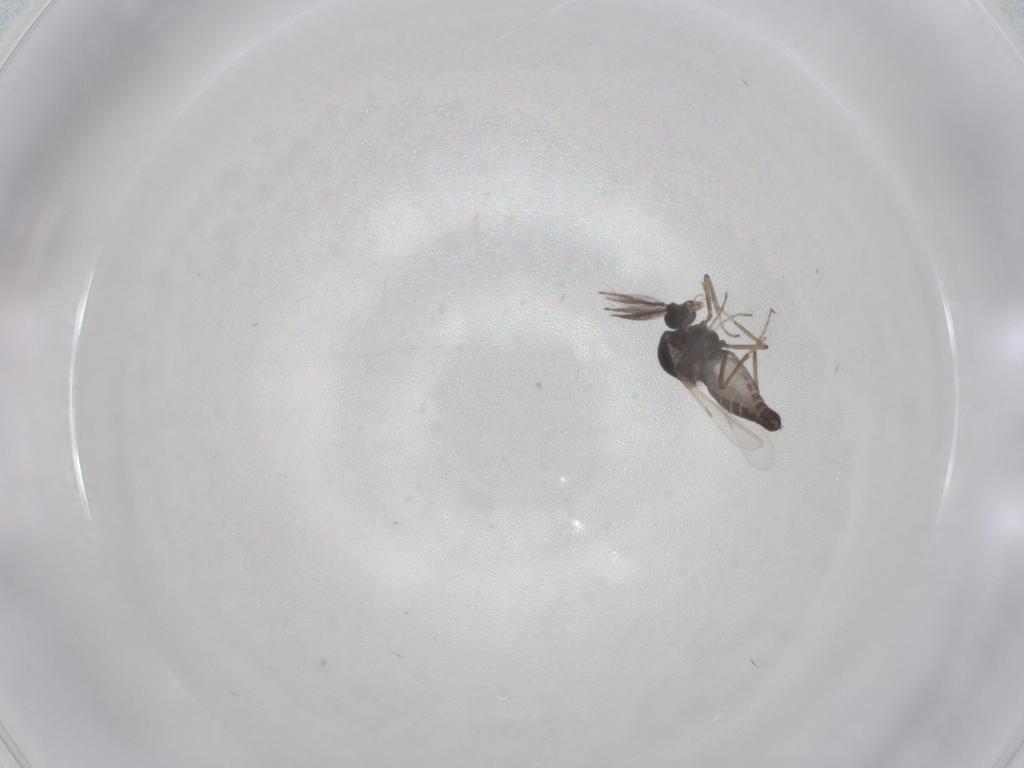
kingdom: Animalia
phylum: Arthropoda
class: Insecta
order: Diptera
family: Ceratopogonidae
